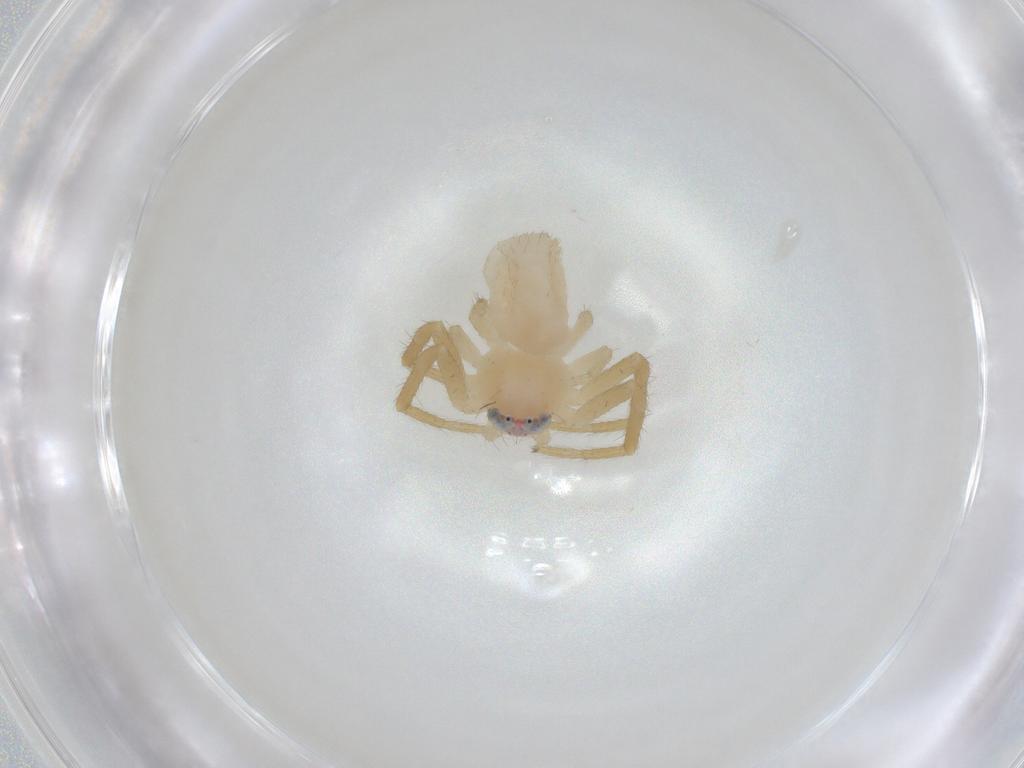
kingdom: Animalia
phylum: Arthropoda
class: Arachnida
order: Araneae
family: Thomisidae
